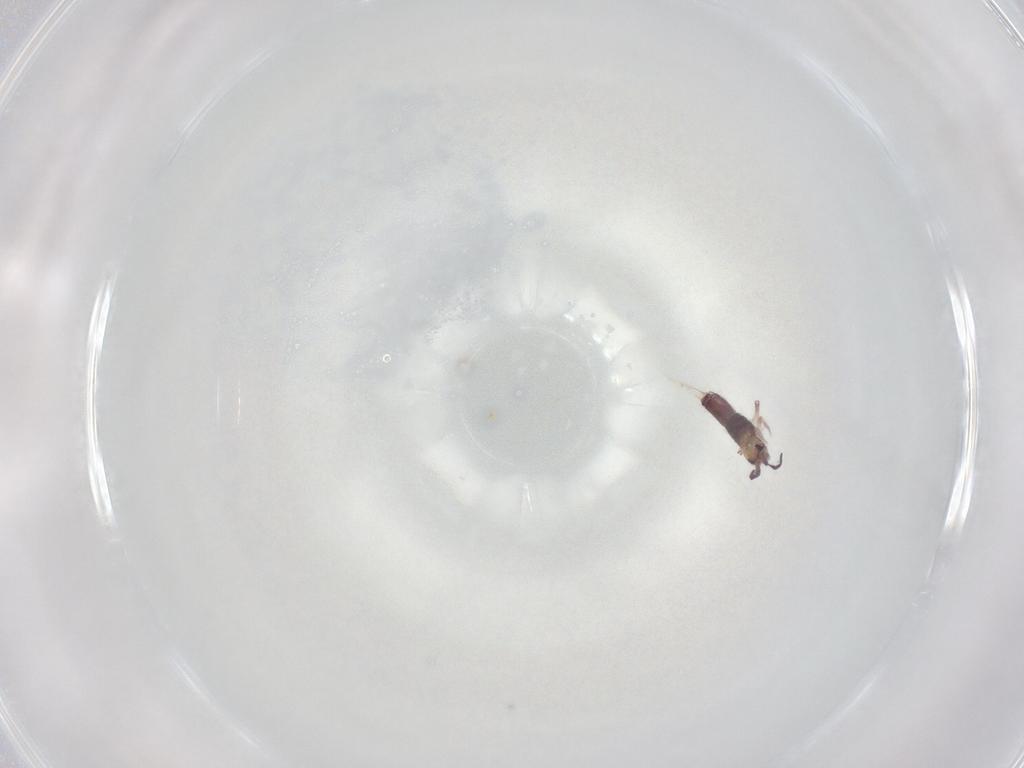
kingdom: Animalia
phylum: Arthropoda
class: Collembola
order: Entomobryomorpha
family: Entomobryidae
